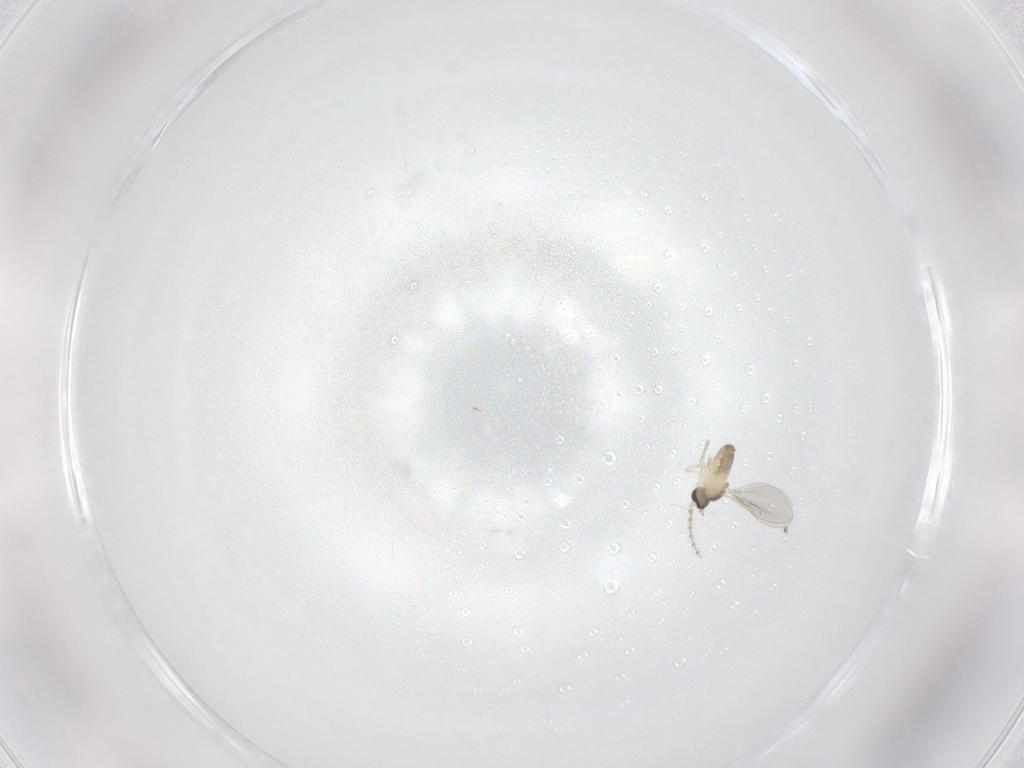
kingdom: Animalia
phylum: Arthropoda
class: Insecta
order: Diptera
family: Cecidomyiidae
